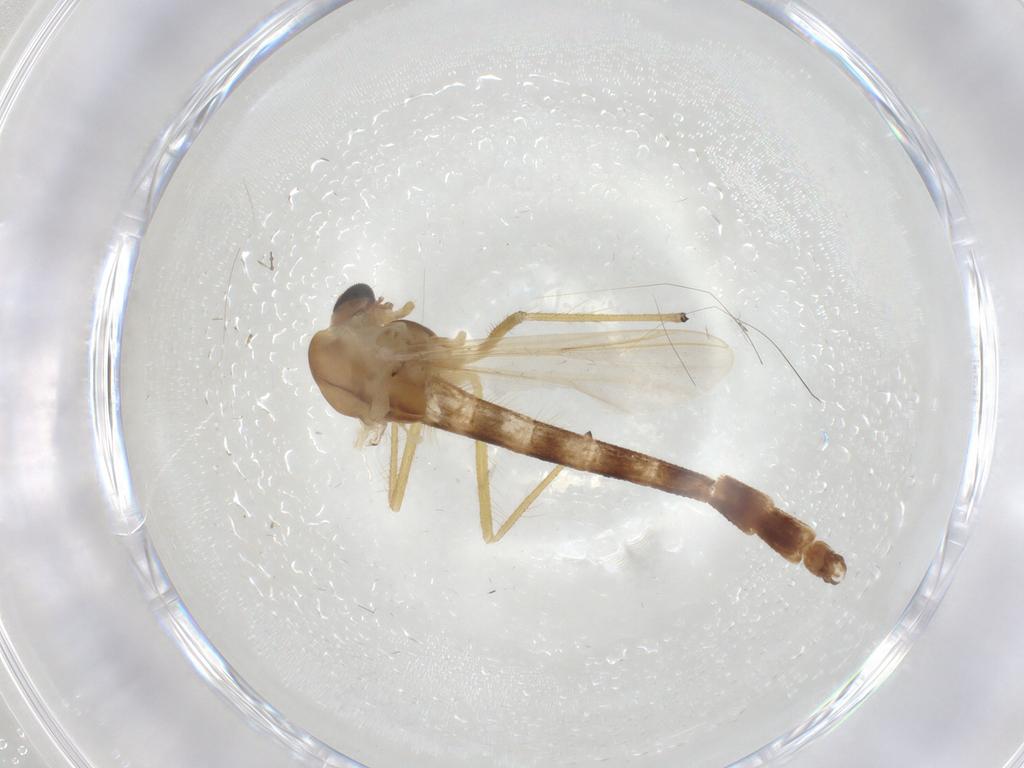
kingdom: Animalia
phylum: Arthropoda
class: Insecta
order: Diptera
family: Chironomidae
